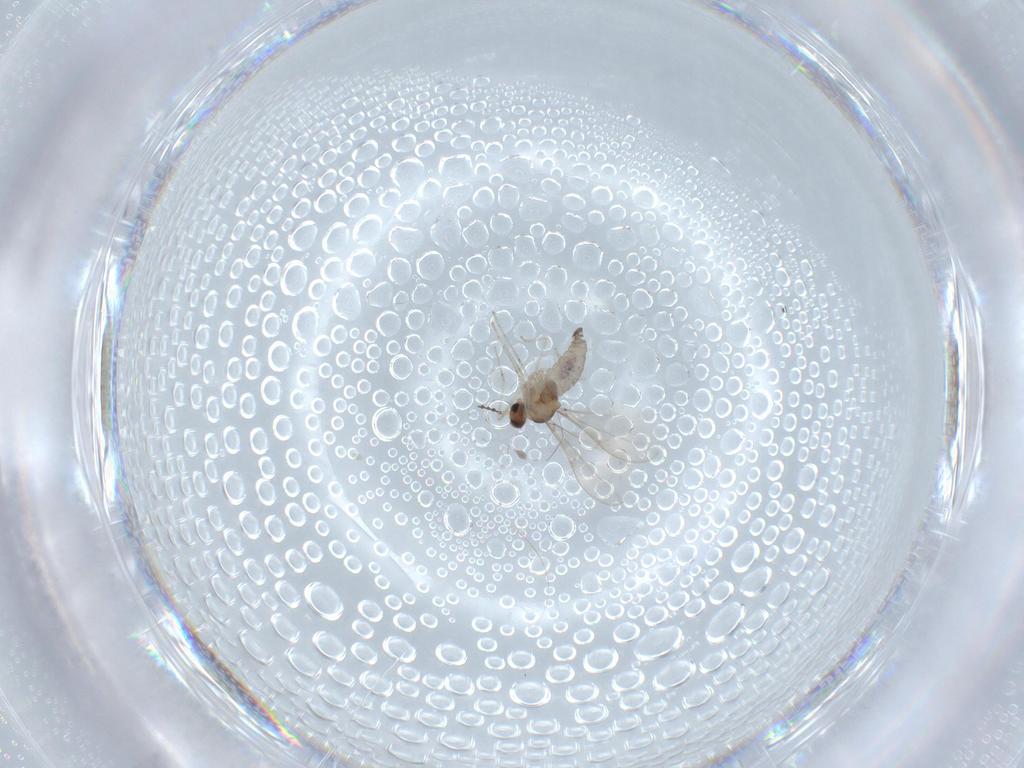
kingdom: Animalia
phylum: Arthropoda
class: Insecta
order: Diptera
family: Cecidomyiidae
